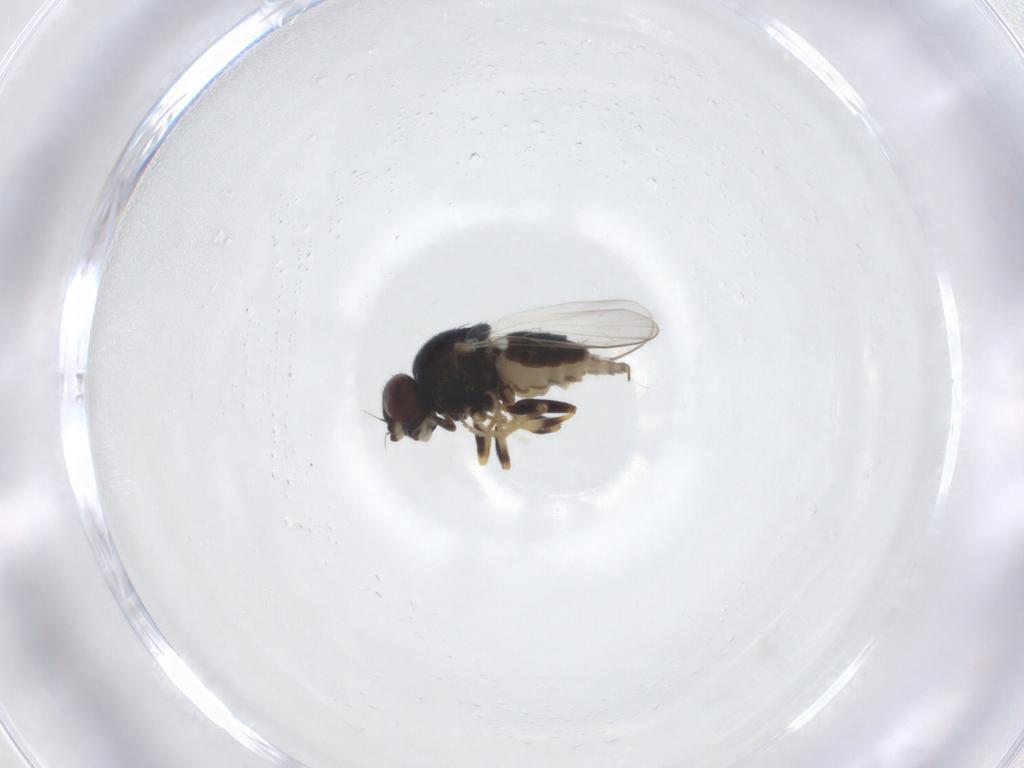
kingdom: Animalia
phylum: Arthropoda
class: Insecta
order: Diptera
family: Chloropidae
